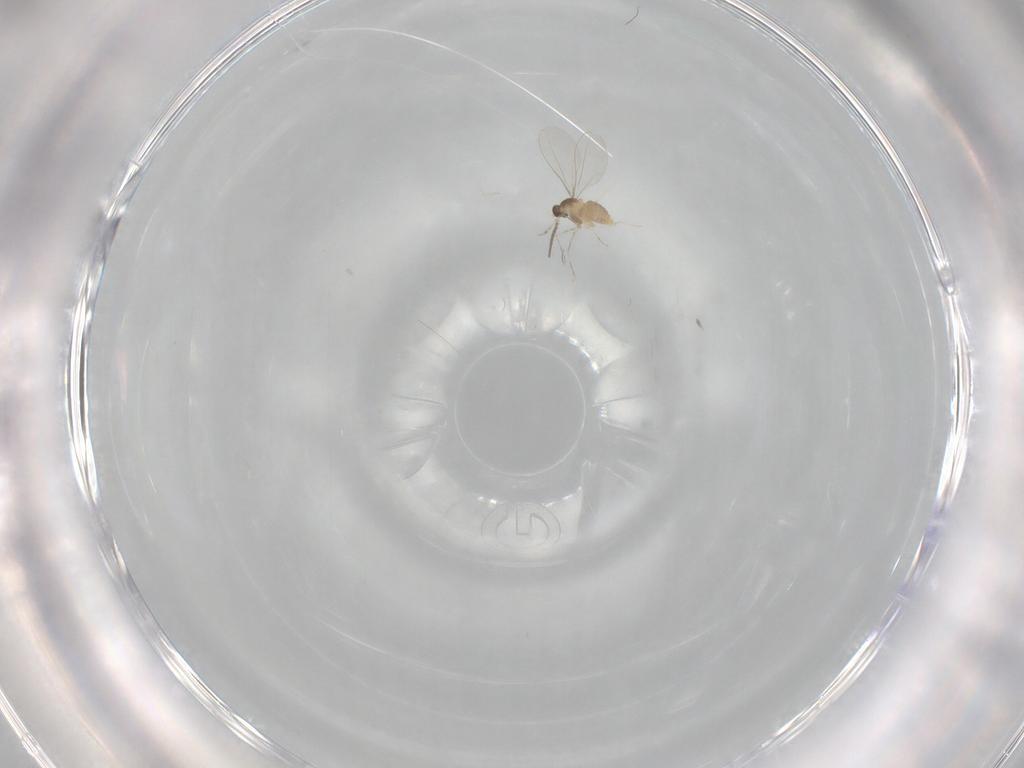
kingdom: Animalia
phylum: Arthropoda
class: Insecta
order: Diptera
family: Cecidomyiidae
